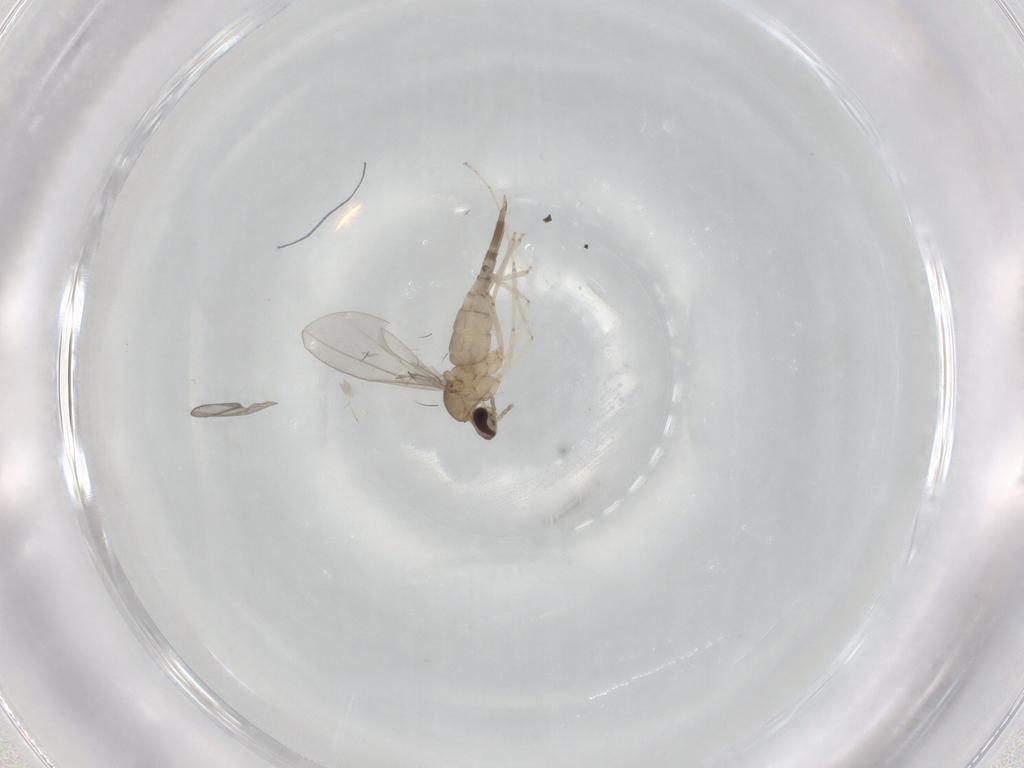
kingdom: Animalia
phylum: Arthropoda
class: Insecta
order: Diptera
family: Cecidomyiidae
